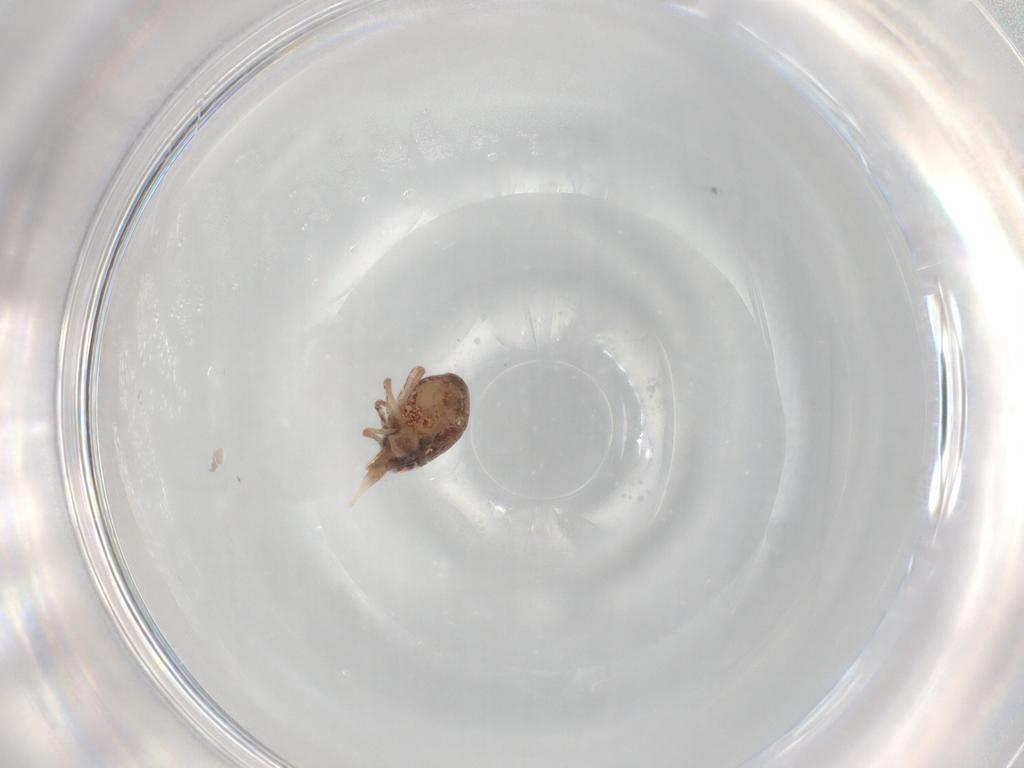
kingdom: Animalia
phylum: Arthropoda
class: Arachnida
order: Trombidiformes
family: Bdellidae
